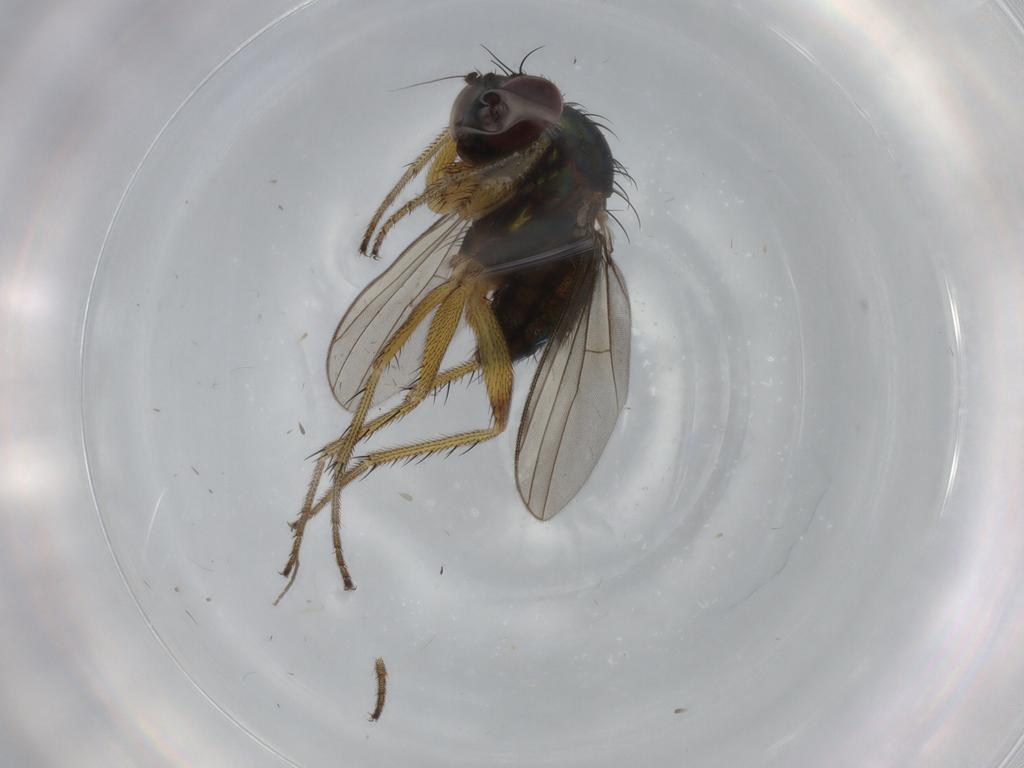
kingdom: Animalia
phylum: Arthropoda
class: Insecta
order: Diptera
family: Dolichopodidae
